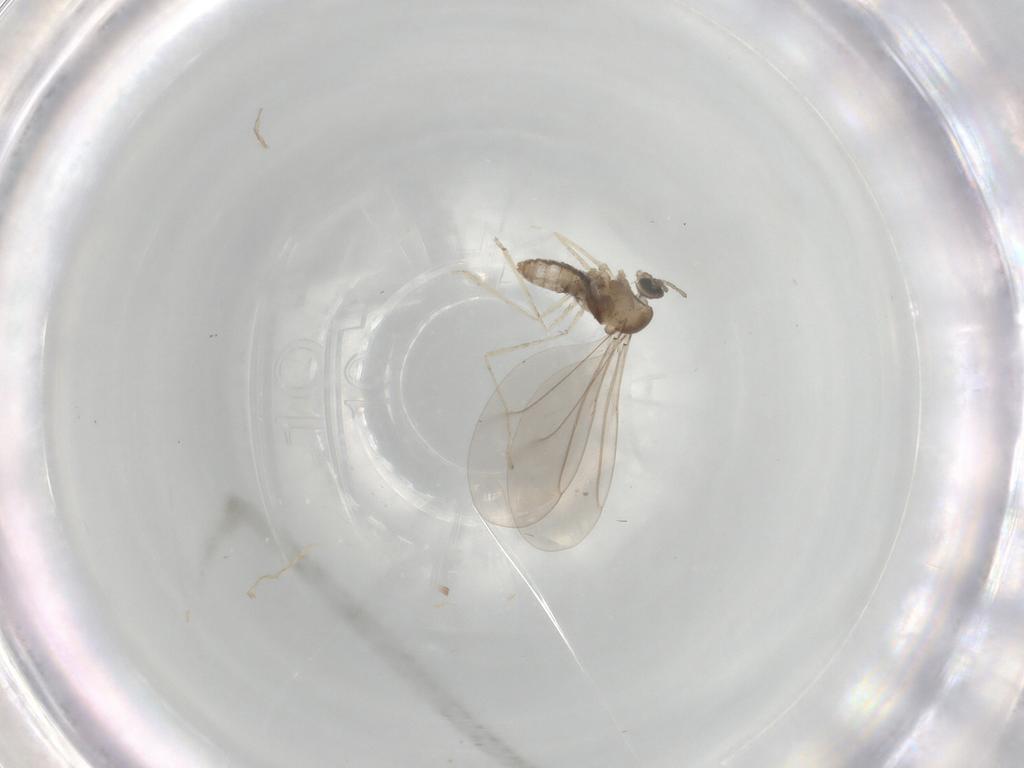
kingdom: Animalia
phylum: Arthropoda
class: Insecta
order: Diptera
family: Cecidomyiidae
